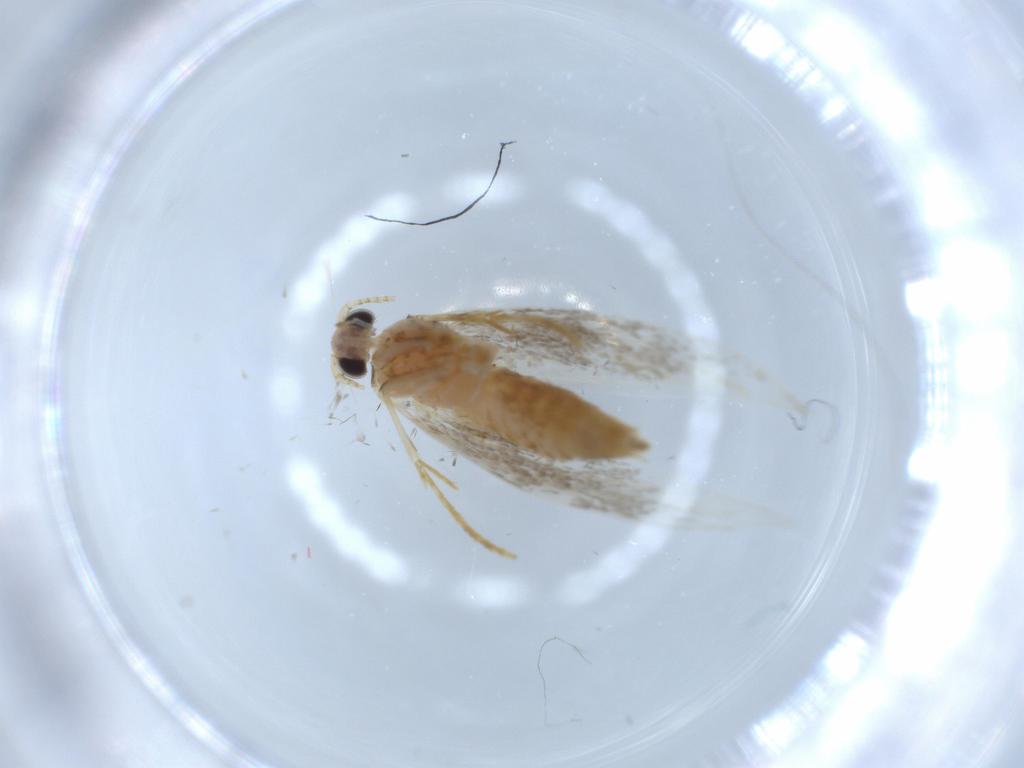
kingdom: Animalia
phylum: Arthropoda
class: Insecta
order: Lepidoptera
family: Tineidae
